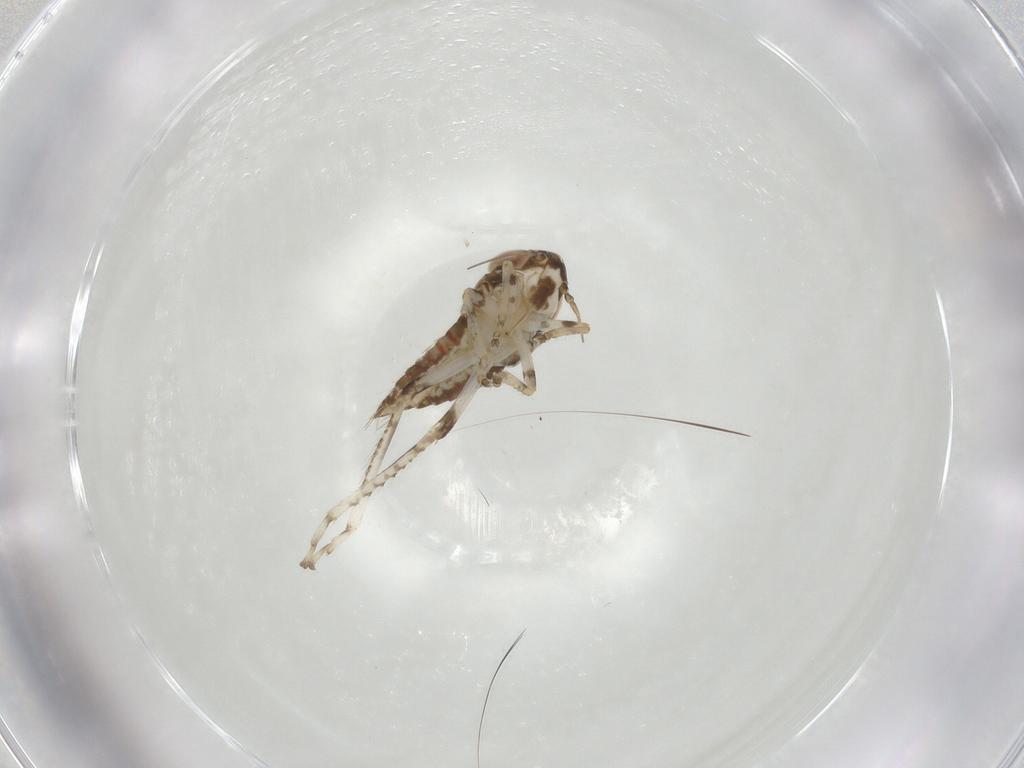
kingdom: Animalia
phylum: Arthropoda
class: Insecta
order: Hemiptera
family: Cicadellidae
